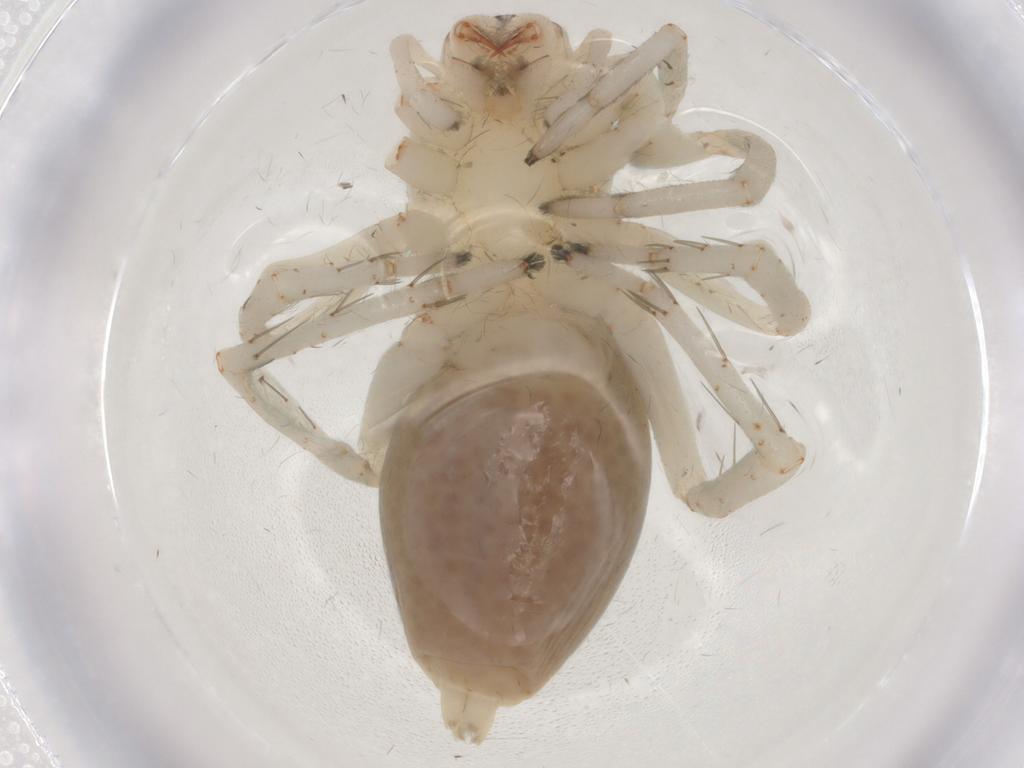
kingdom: Animalia
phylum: Arthropoda
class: Arachnida
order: Araneae
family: Clubionidae
